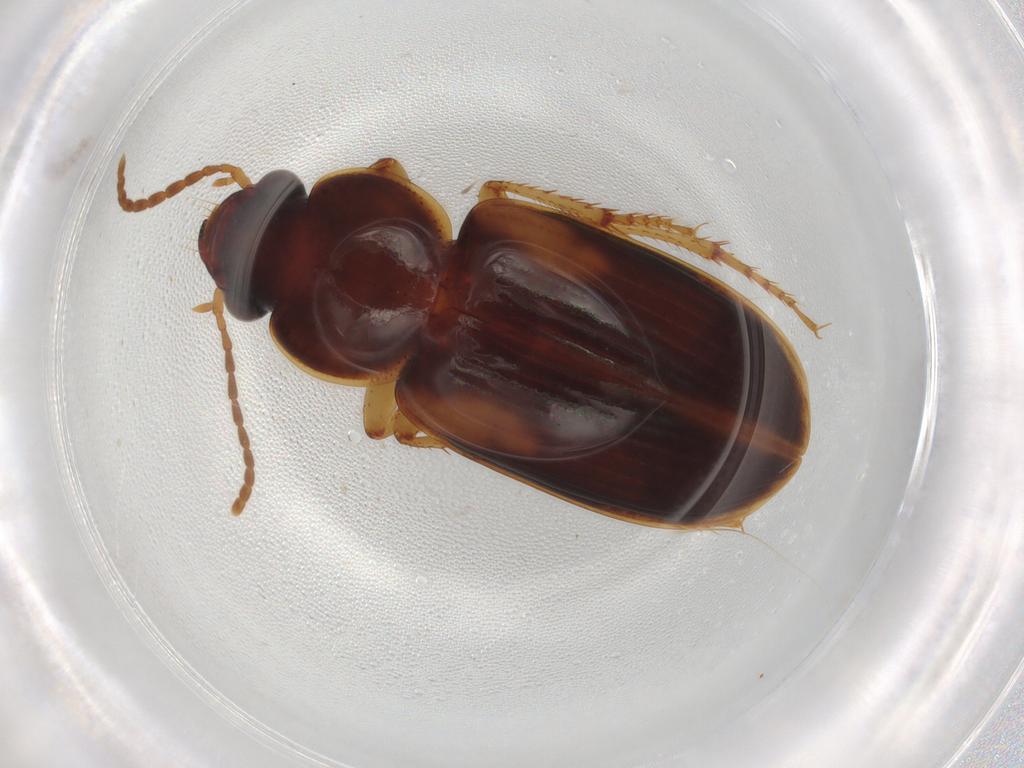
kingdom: Animalia
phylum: Arthropoda
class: Insecta
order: Coleoptera
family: Carabidae
